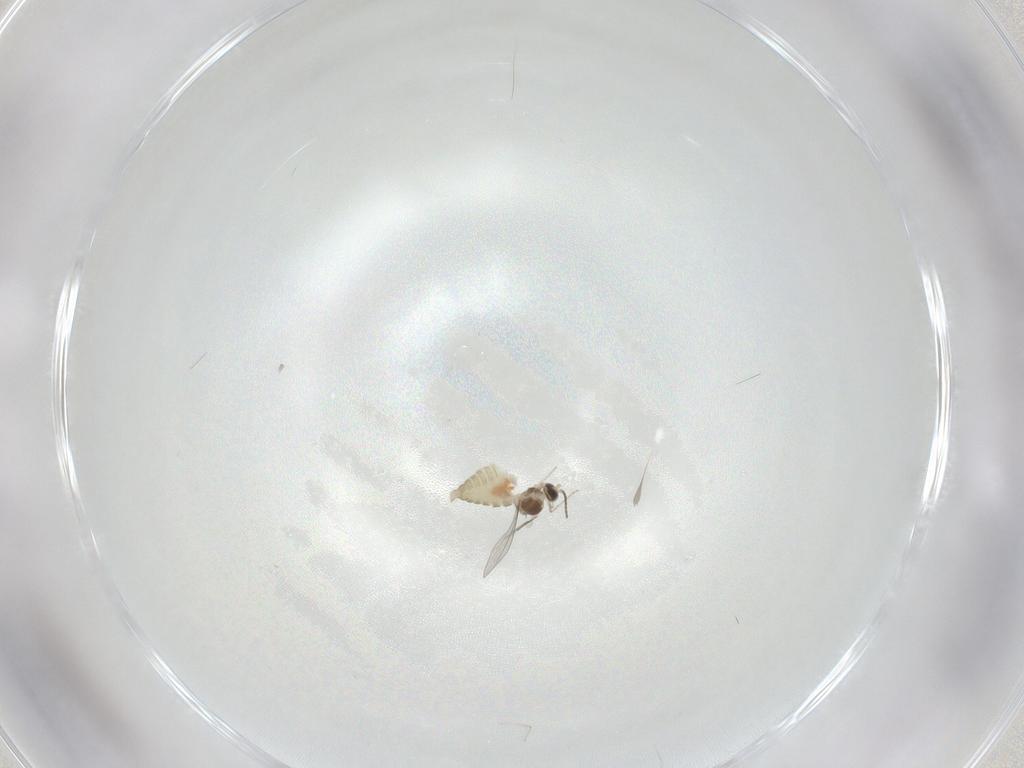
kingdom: Animalia
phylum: Arthropoda
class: Insecta
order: Diptera
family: Cecidomyiidae
